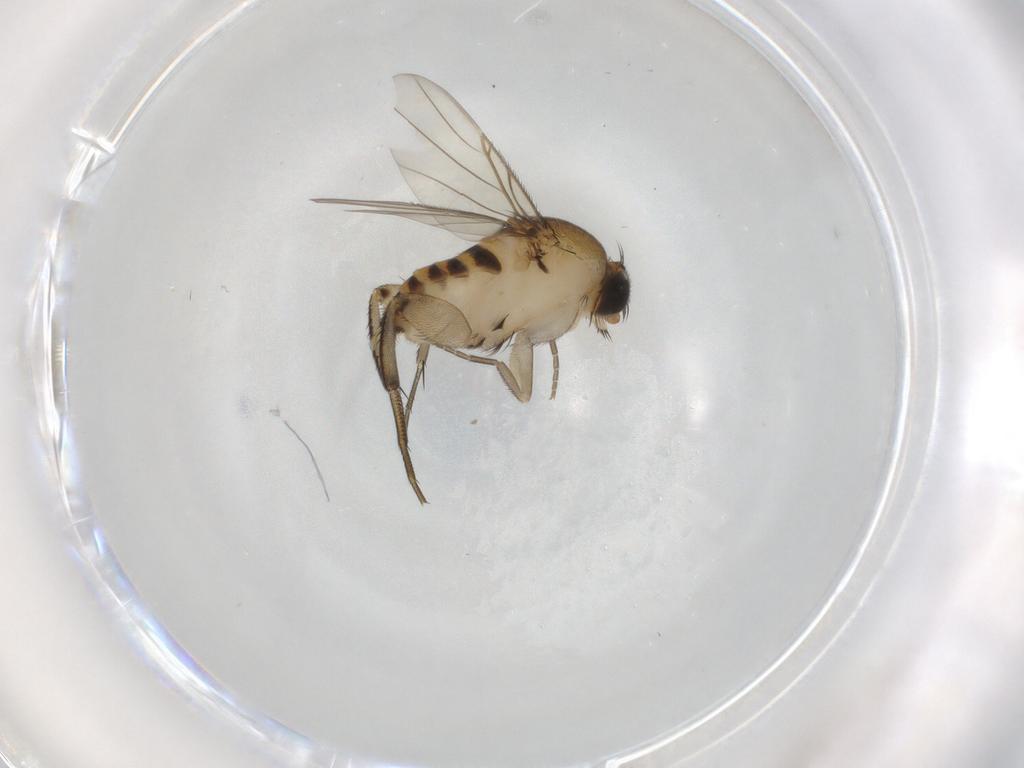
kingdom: Animalia
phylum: Arthropoda
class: Insecta
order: Diptera
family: Phoridae
